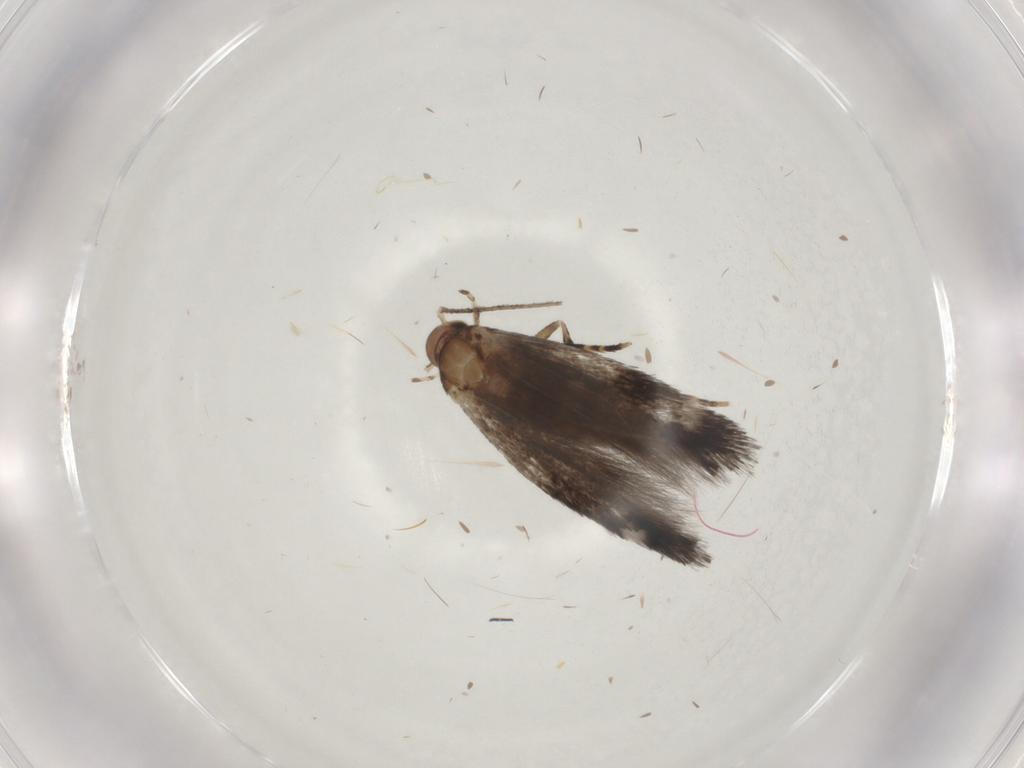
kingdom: Animalia
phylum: Arthropoda
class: Insecta
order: Lepidoptera
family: Elachistidae
